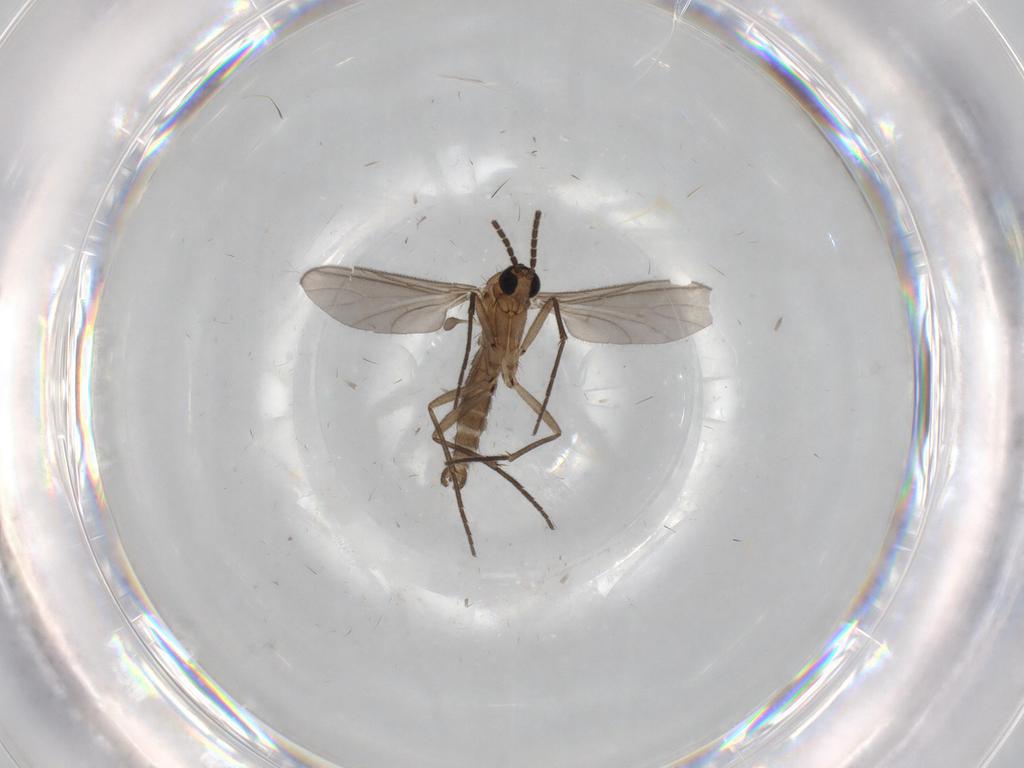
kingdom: Animalia
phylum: Arthropoda
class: Insecta
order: Diptera
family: Sciaridae
